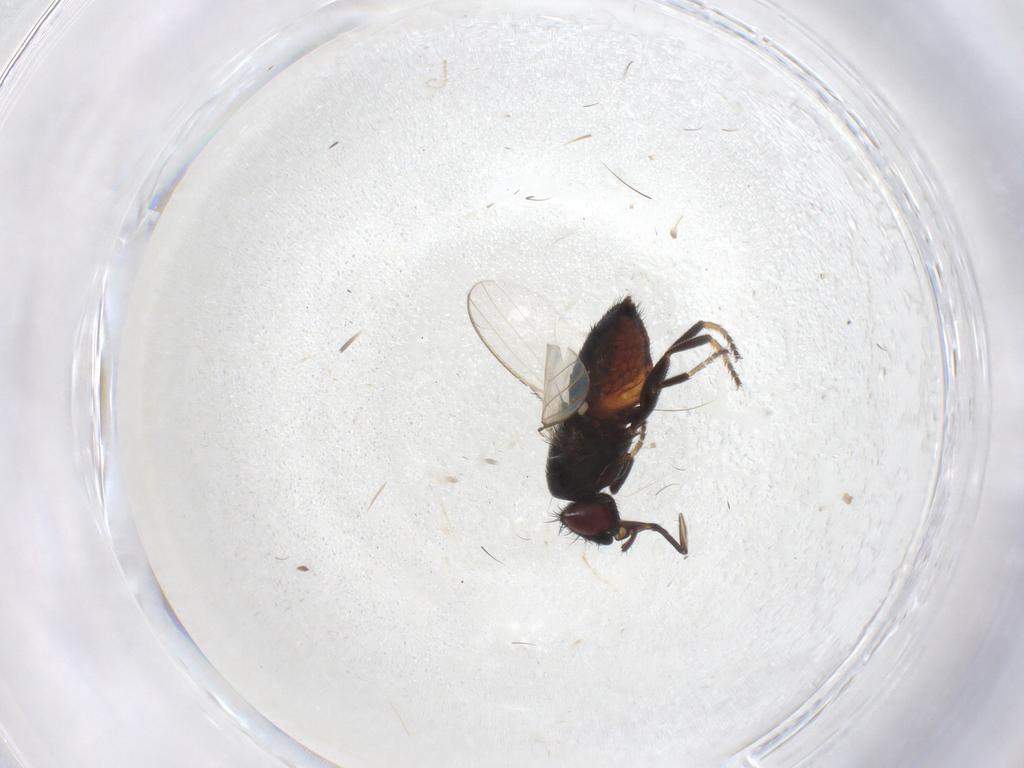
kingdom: Animalia
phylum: Arthropoda
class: Insecta
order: Diptera
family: Milichiidae
